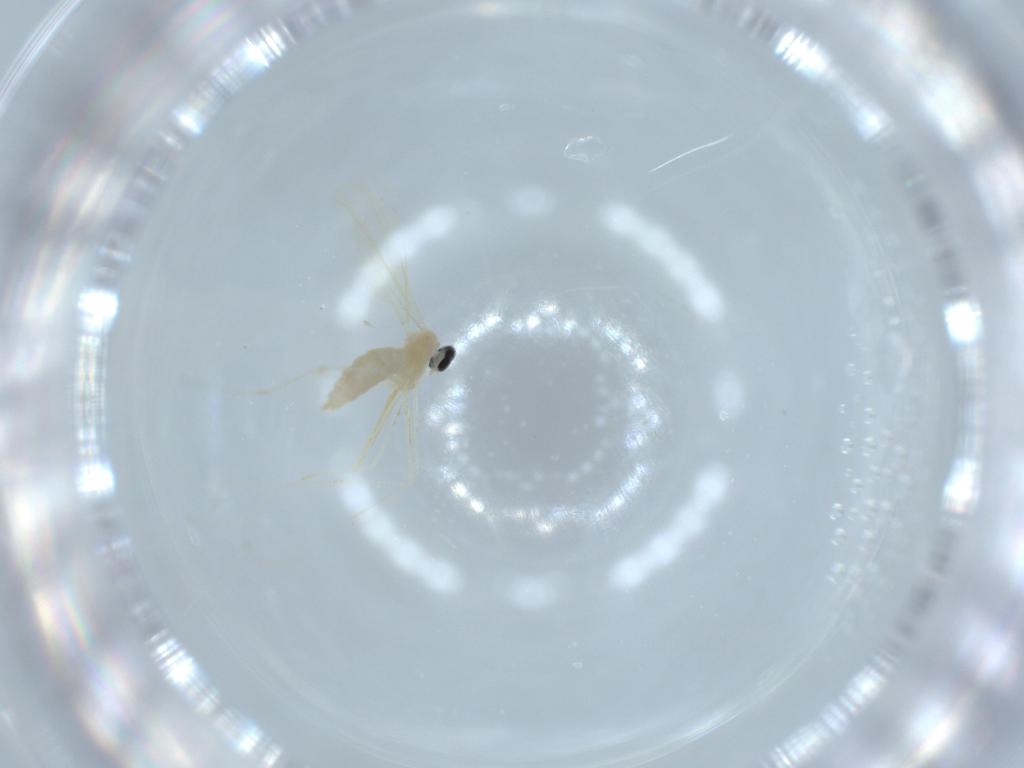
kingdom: Animalia
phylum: Arthropoda
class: Insecta
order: Diptera
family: Cecidomyiidae
